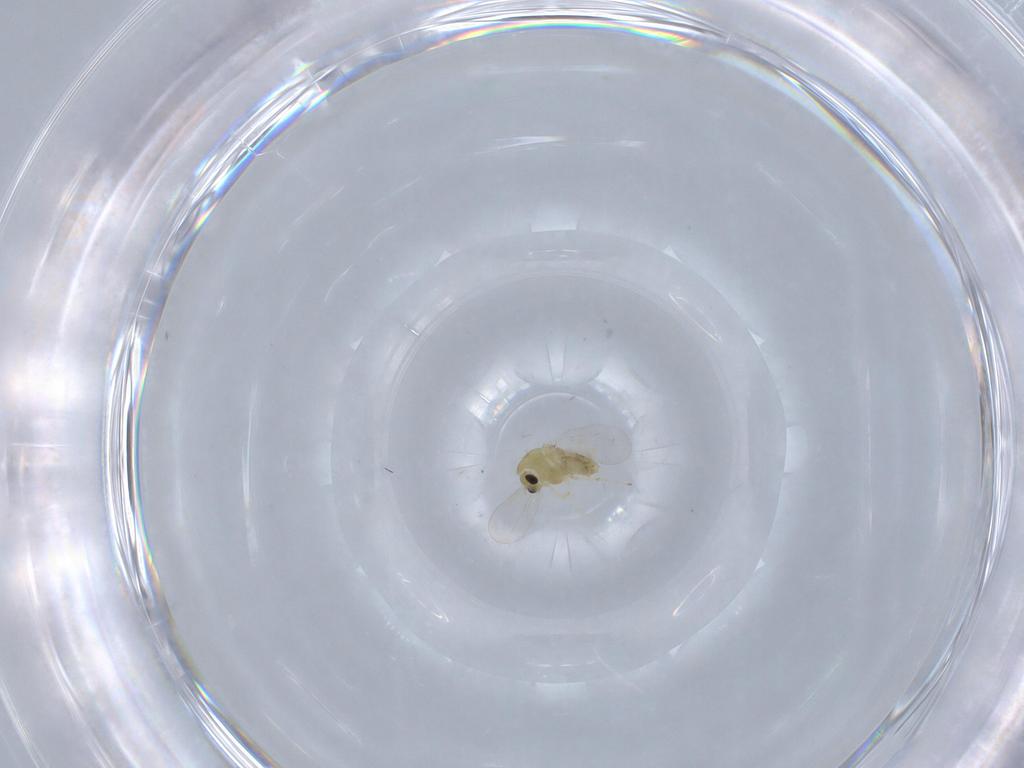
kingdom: Animalia
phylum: Arthropoda
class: Insecta
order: Diptera
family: Chironomidae
